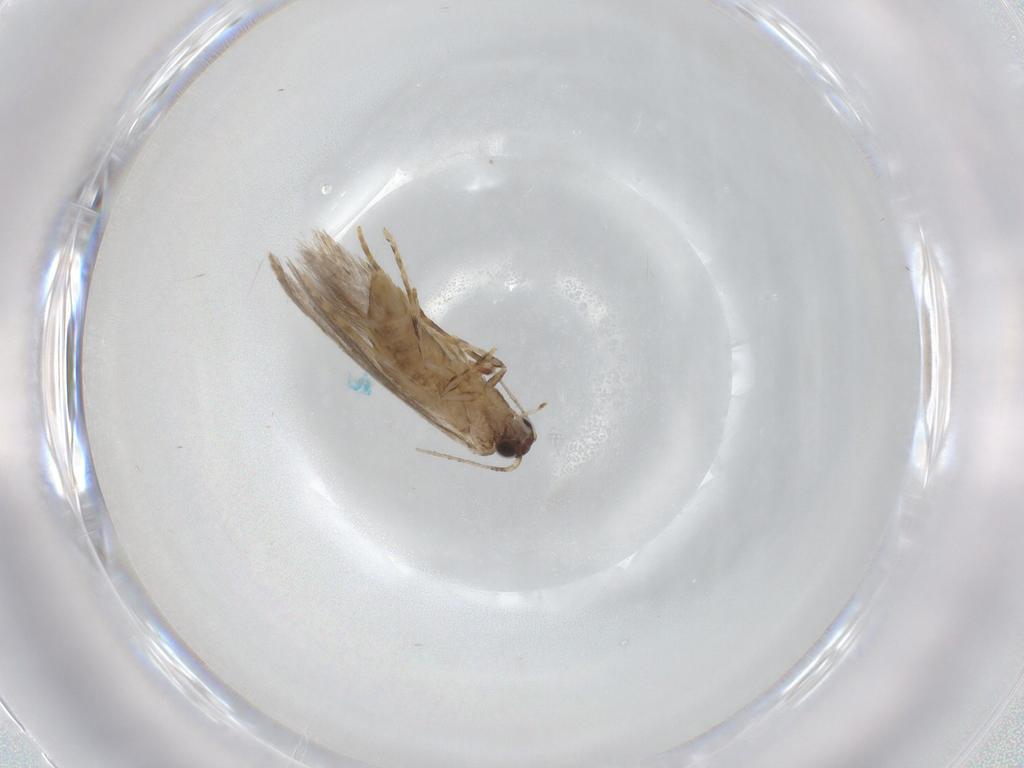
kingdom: Animalia
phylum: Arthropoda
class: Insecta
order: Lepidoptera
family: Tineidae
